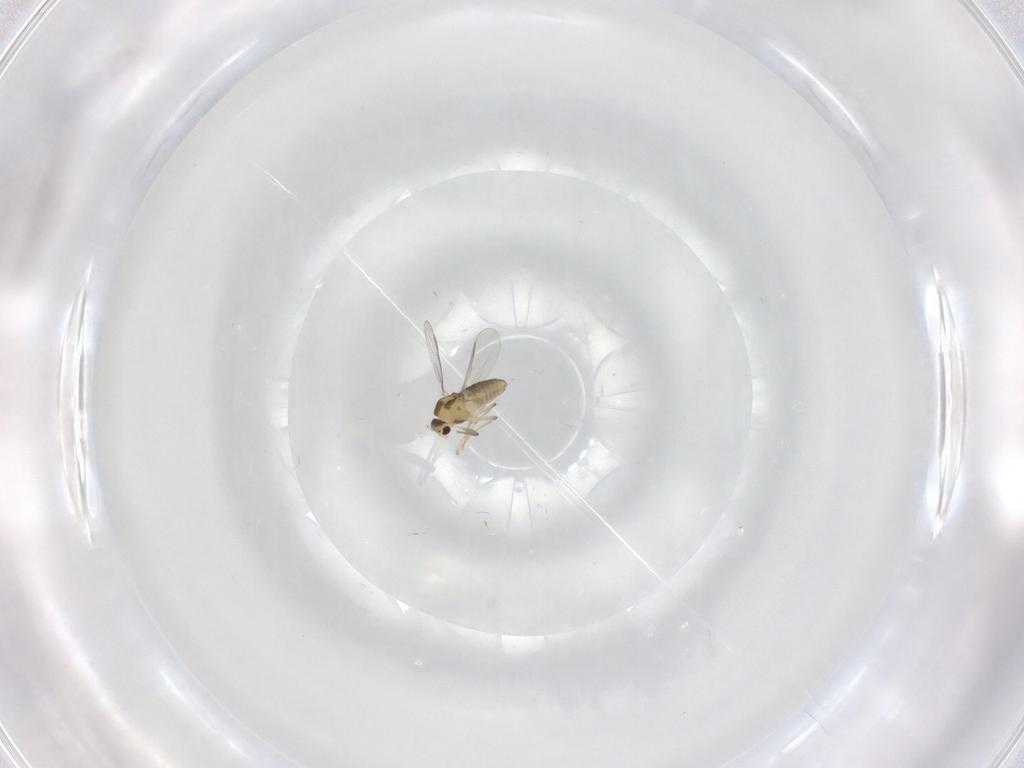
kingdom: Animalia
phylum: Arthropoda
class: Insecta
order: Diptera
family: Chironomidae
